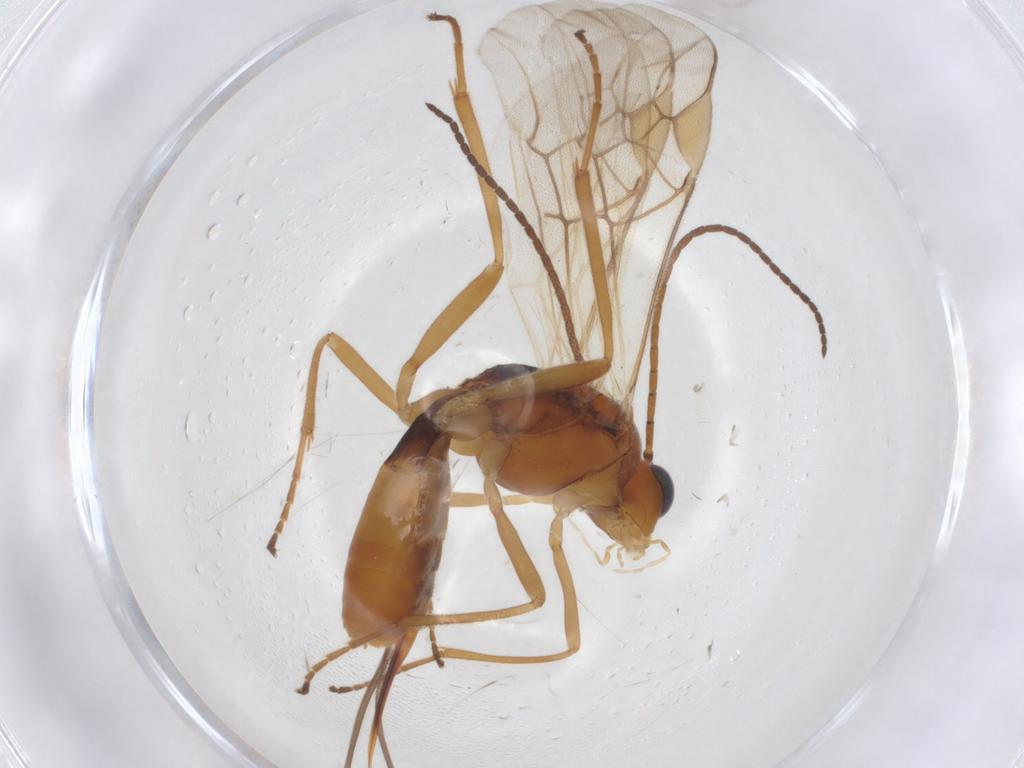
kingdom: Animalia
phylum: Arthropoda
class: Insecta
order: Hymenoptera
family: Braconidae
